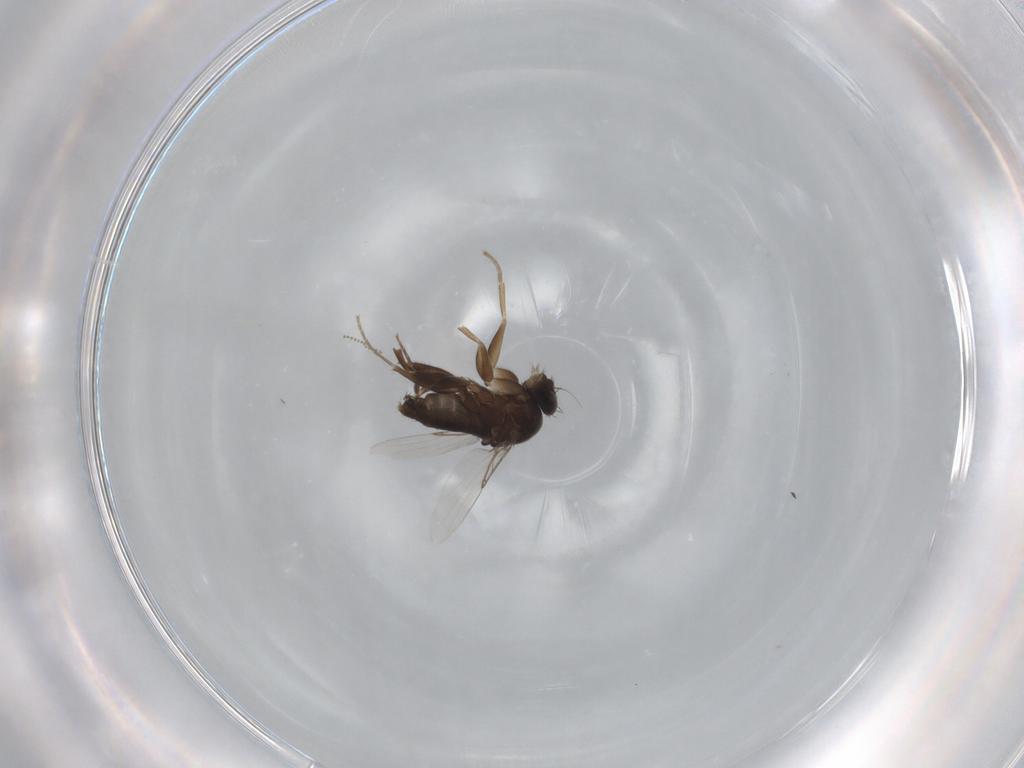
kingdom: Animalia
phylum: Arthropoda
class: Insecta
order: Diptera
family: Phoridae
